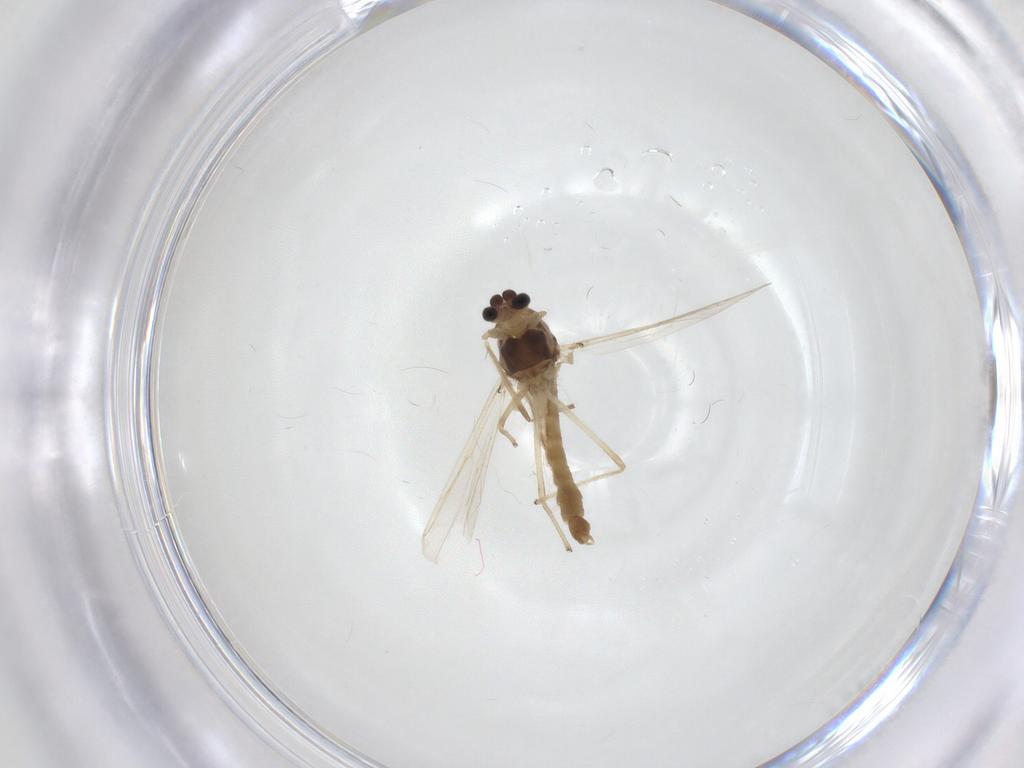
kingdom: Animalia
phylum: Arthropoda
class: Insecta
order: Diptera
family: Chironomidae
